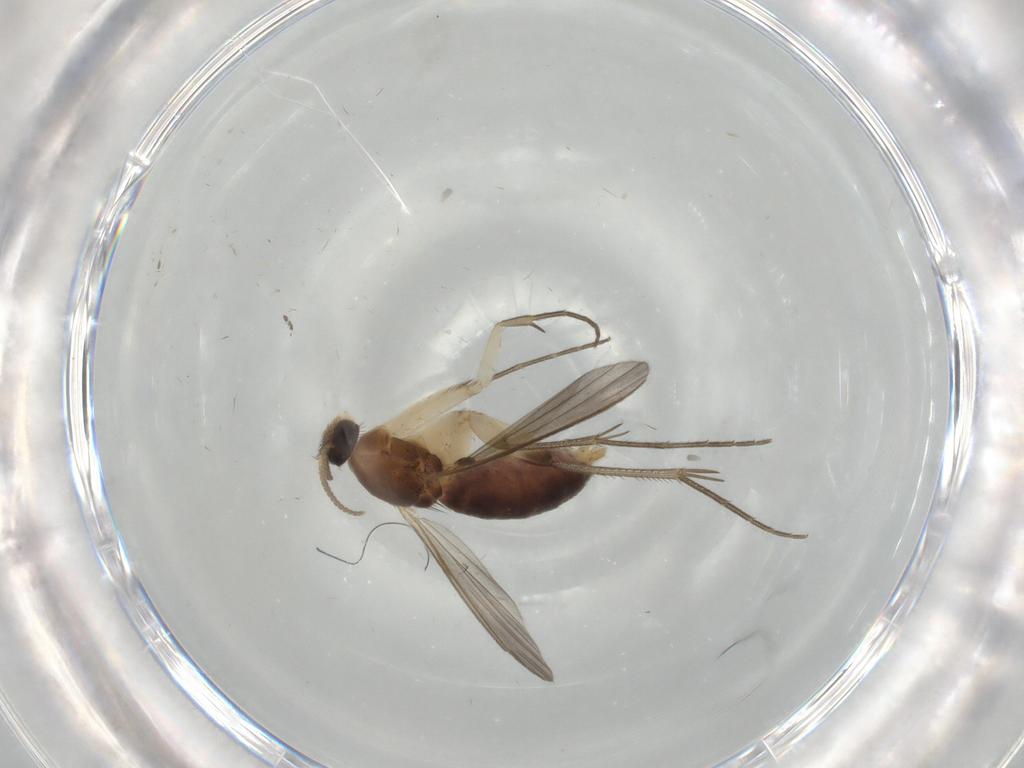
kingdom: Animalia
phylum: Arthropoda
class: Insecta
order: Diptera
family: Mycetophilidae
